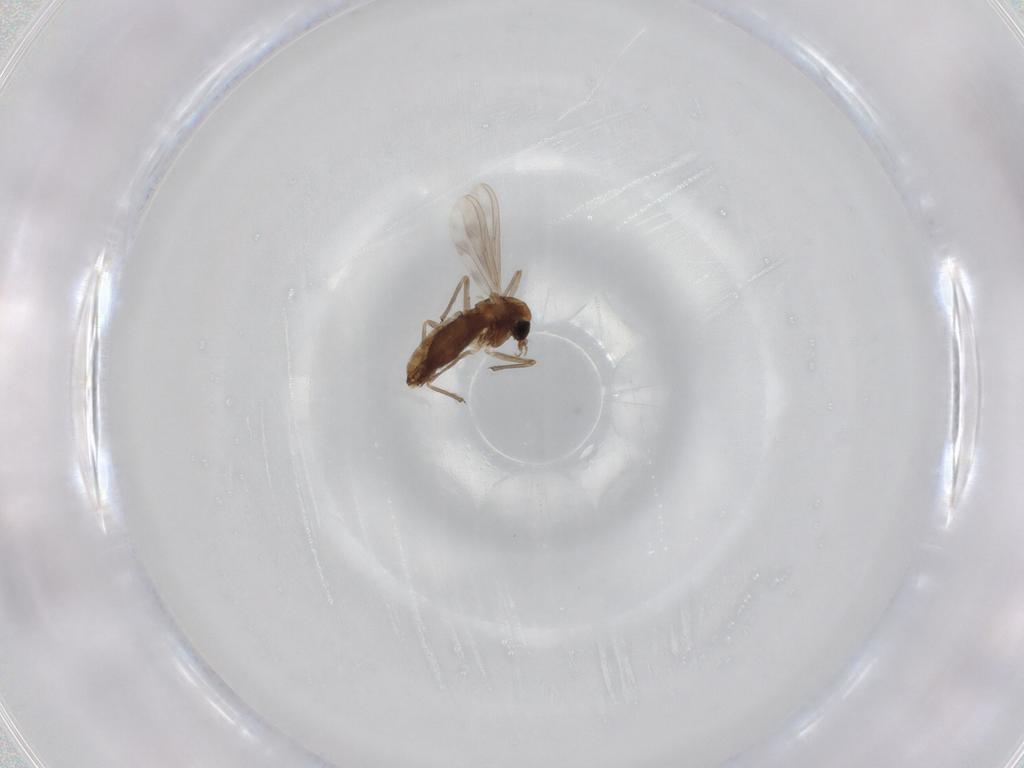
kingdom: Animalia
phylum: Arthropoda
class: Insecta
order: Diptera
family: Chironomidae
